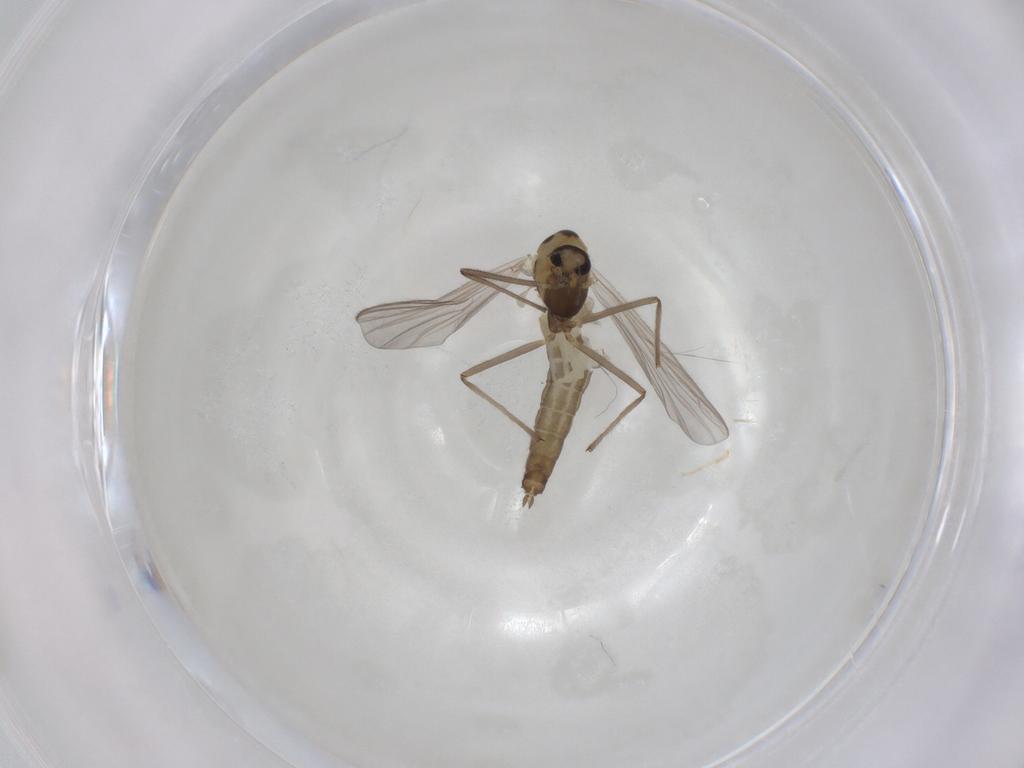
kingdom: Animalia
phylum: Arthropoda
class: Insecta
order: Diptera
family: Chironomidae
